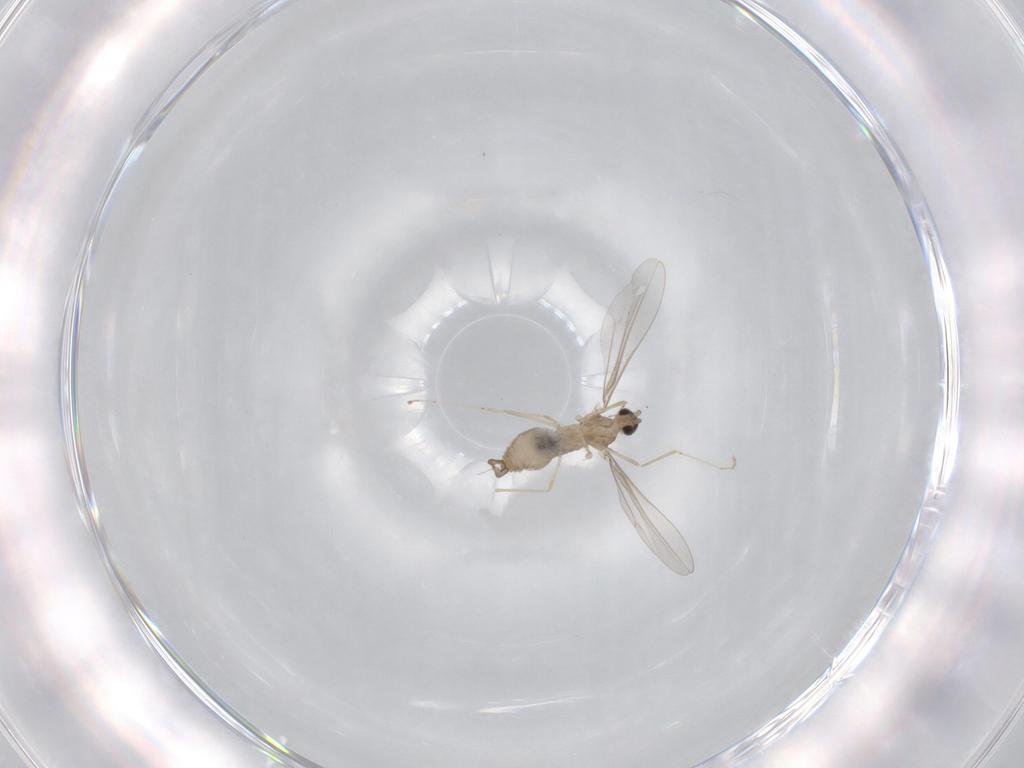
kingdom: Animalia
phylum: Arthropoda
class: Insecta
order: Diptera
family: Cecidomyiidae
